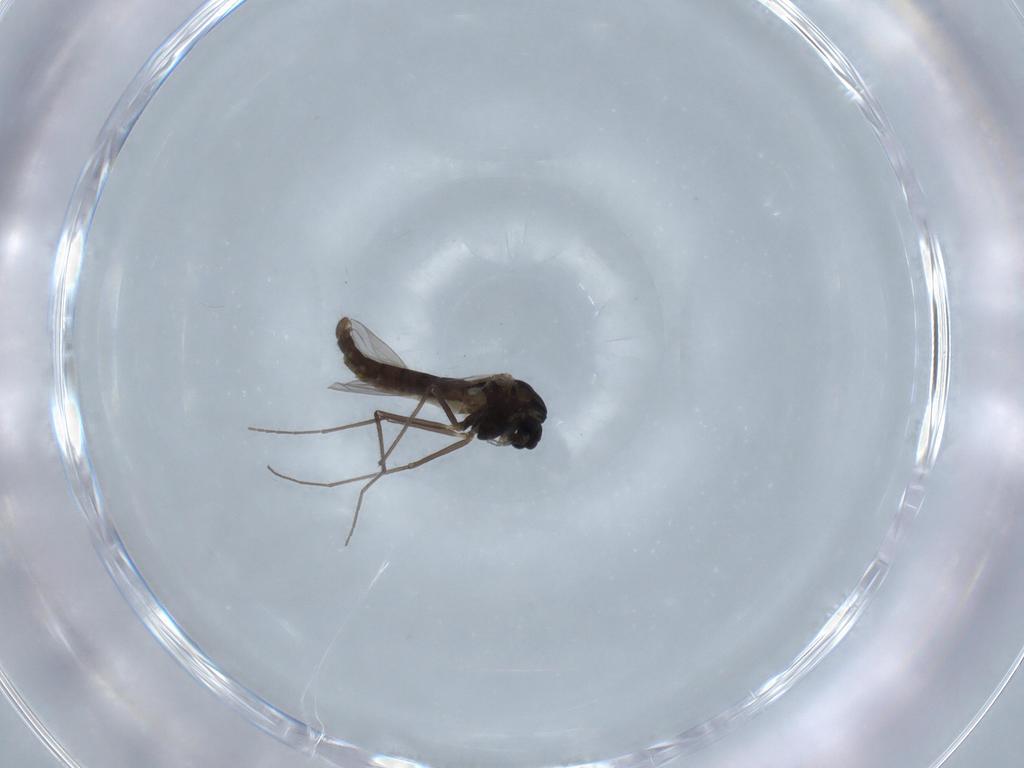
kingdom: Animalia
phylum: Arthropoda
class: Insecta
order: Diptera
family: Chironomidae
